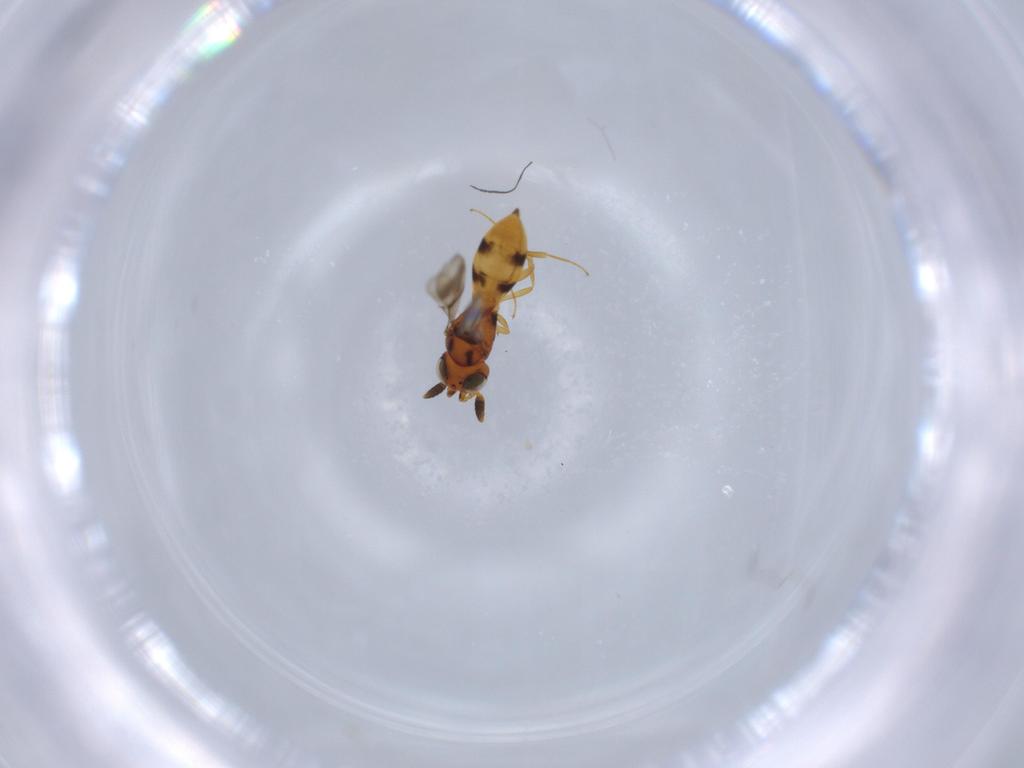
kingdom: Animalia
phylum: Arthropoda
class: Insecta
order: Hymenoptera
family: Scelionidae
